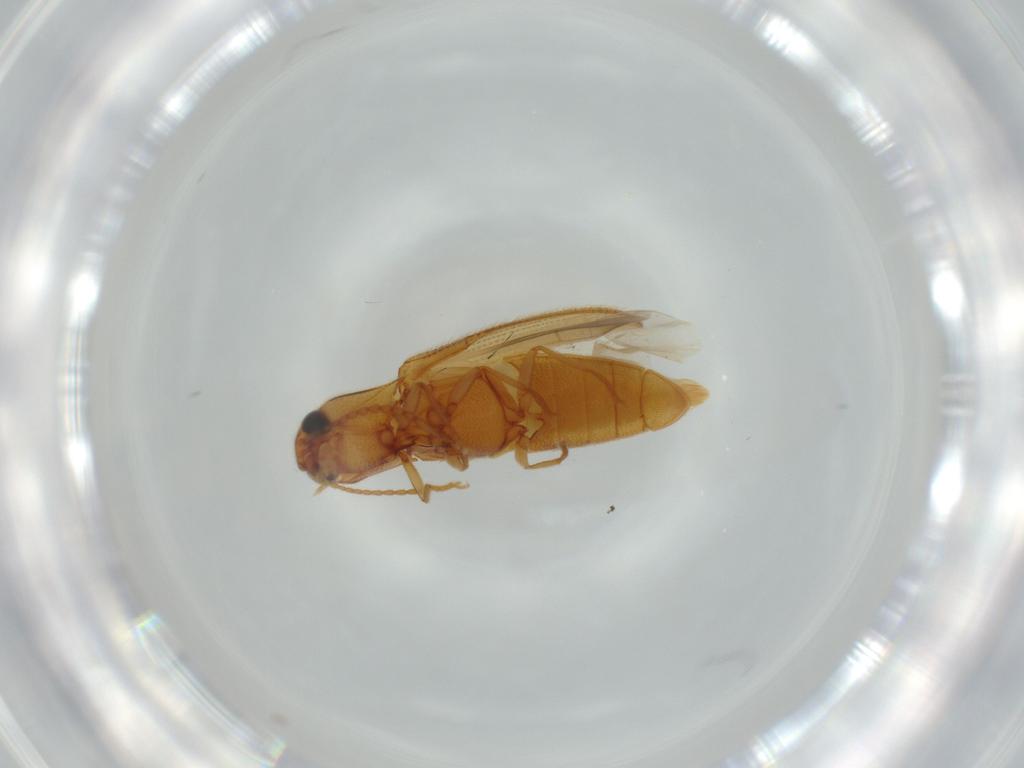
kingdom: Animalia
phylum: Arthropoda
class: Insecta
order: Coleoptera
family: Elateridae
